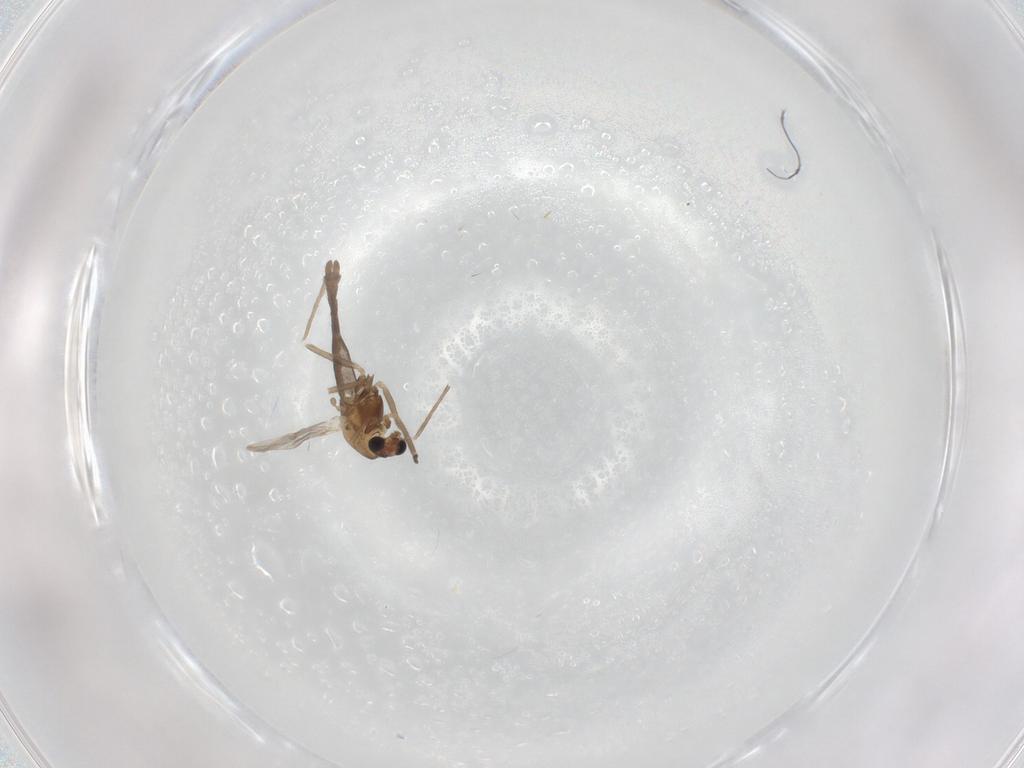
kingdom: Animalia
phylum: Arthropoda
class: Insecta
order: Diptera
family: Chironomidae
